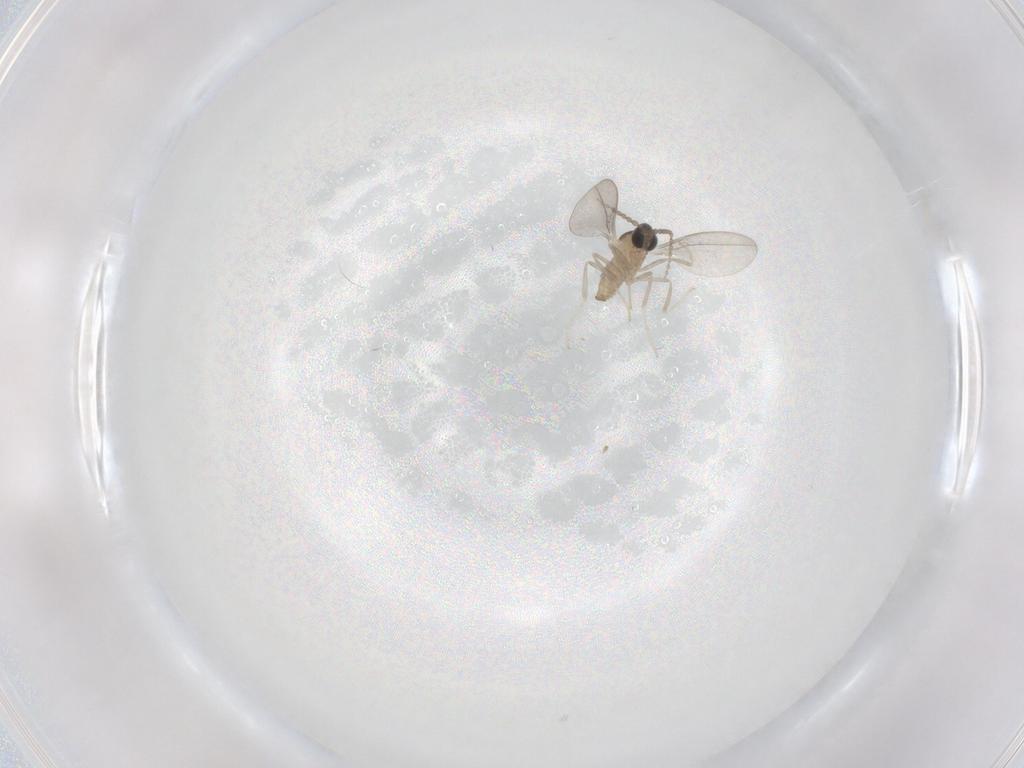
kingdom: Animalia
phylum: Arthropoda
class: Insecta
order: Diptera
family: Cecidomyiidae
